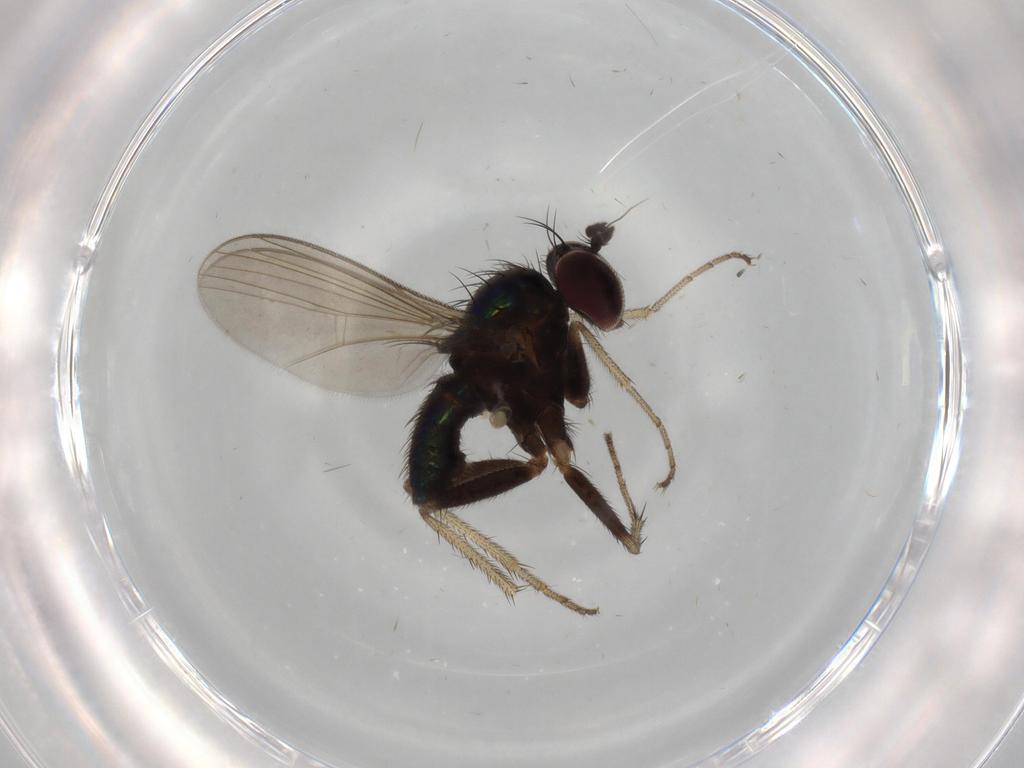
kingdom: Animalia
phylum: Arthropoda
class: Insecta
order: Diptera
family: Dolichopodidae
